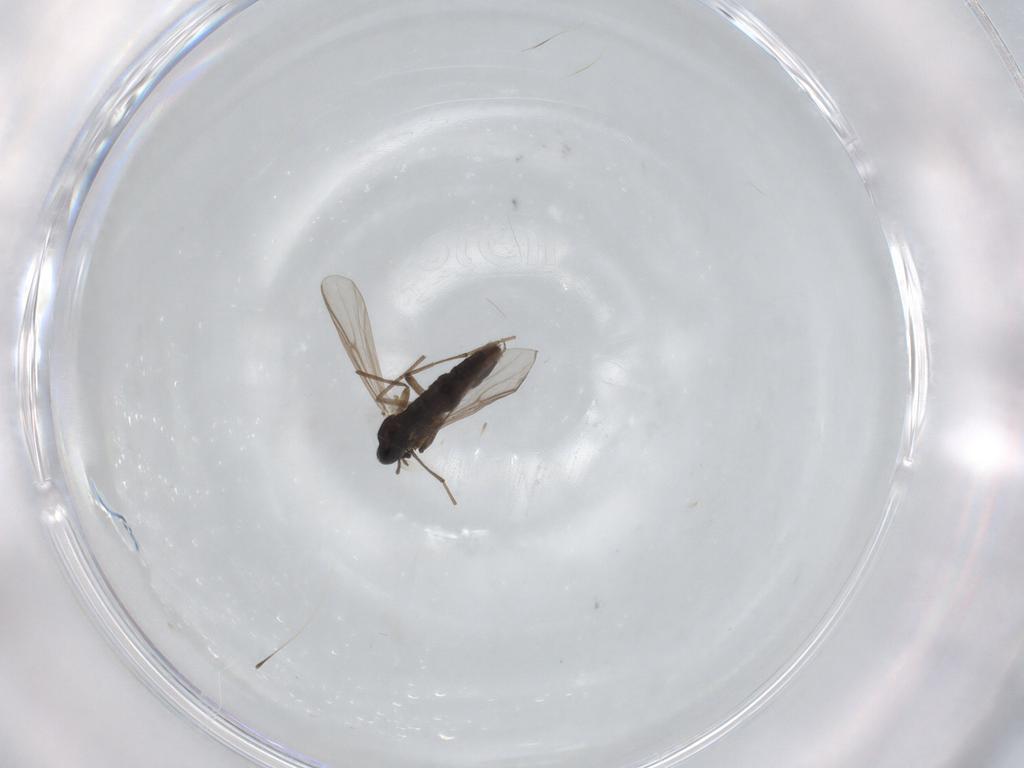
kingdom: Animalia
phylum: Arthropoda
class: Insecta
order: Diptera
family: Chironomidae
